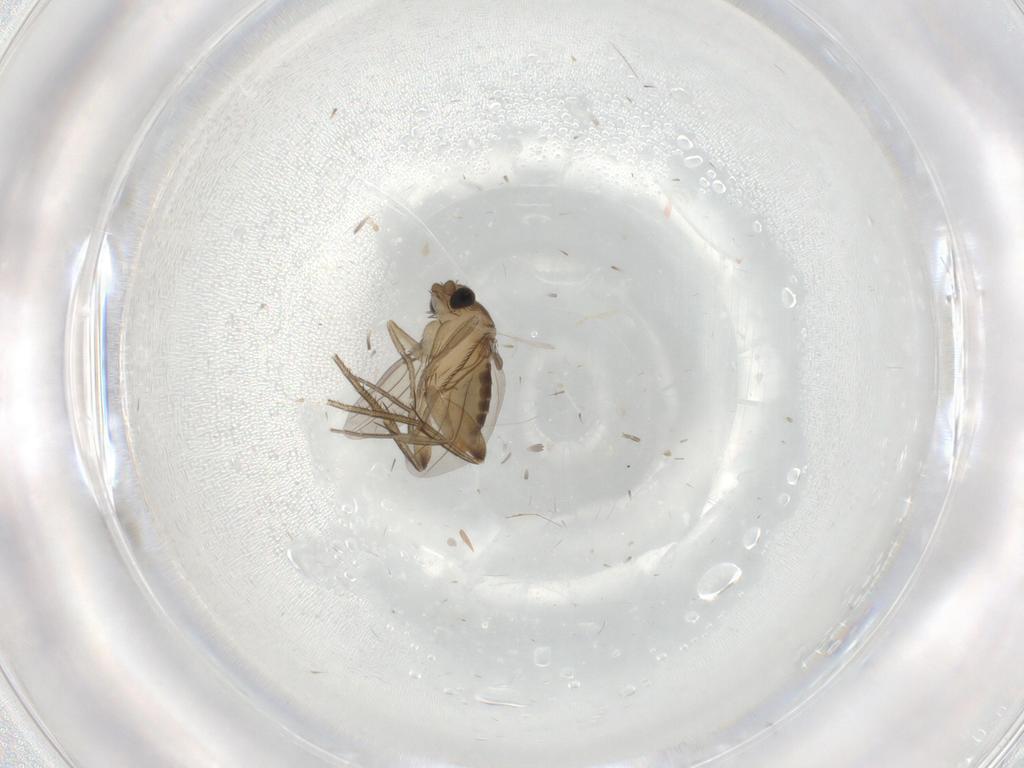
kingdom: Animalia
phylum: Arthropoda
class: Insecta
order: Diptera
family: Phoridae
